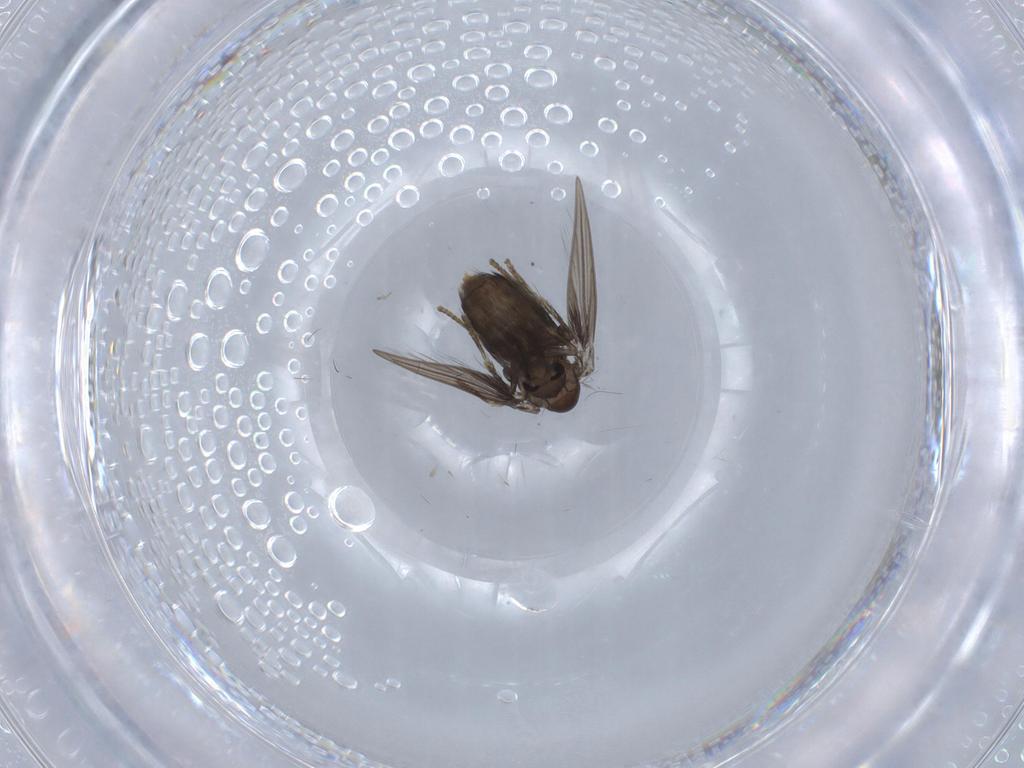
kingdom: Animalia
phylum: Arthropoda
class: Insecta
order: Diptera
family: Psychodidae
